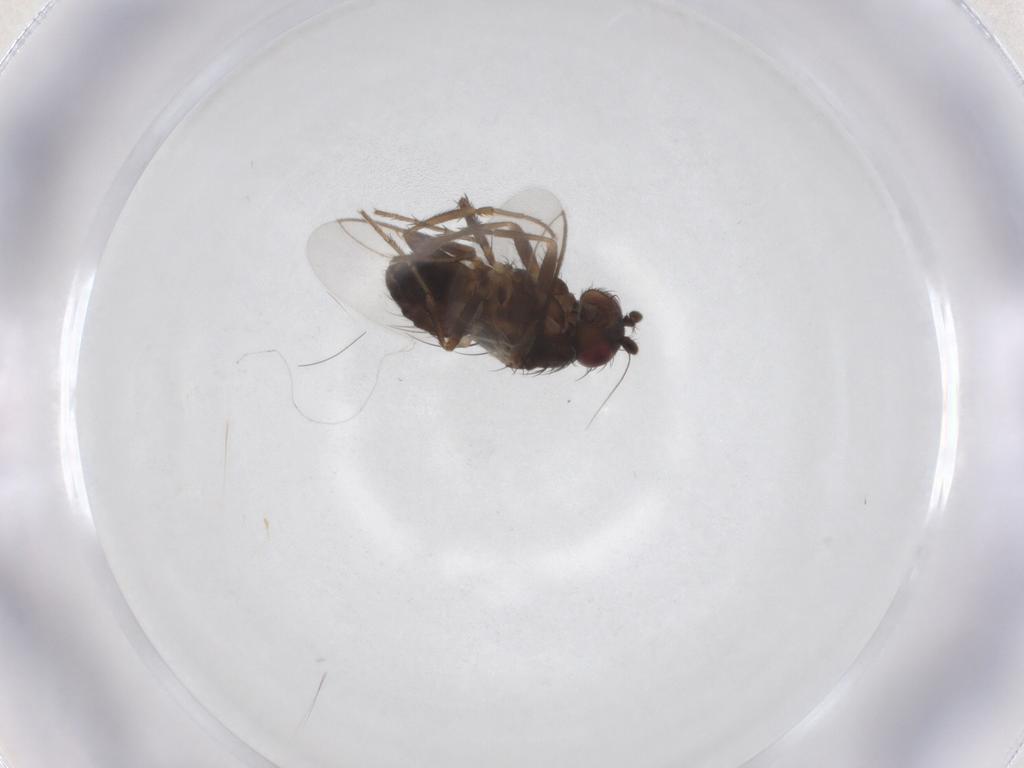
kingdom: Animalia
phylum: Arthropoda
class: Insecta
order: Diptera
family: Sphaeroceridae
